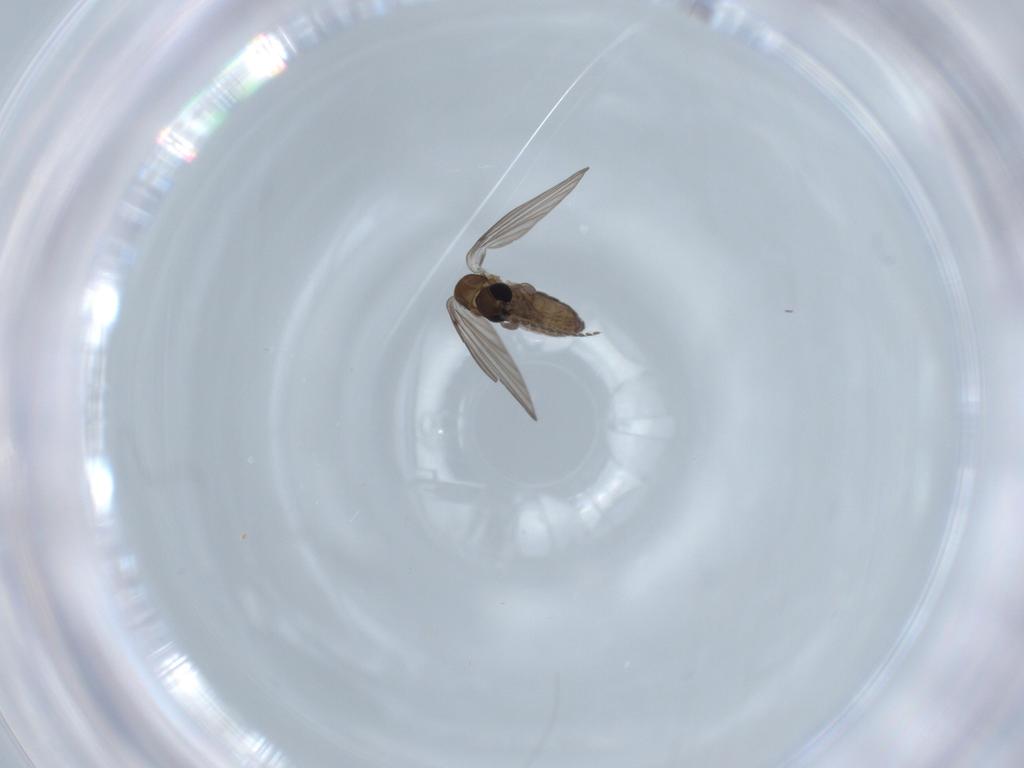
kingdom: Animalia
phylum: Arthropoda
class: Insecta
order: Diptera
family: Psychodidae
